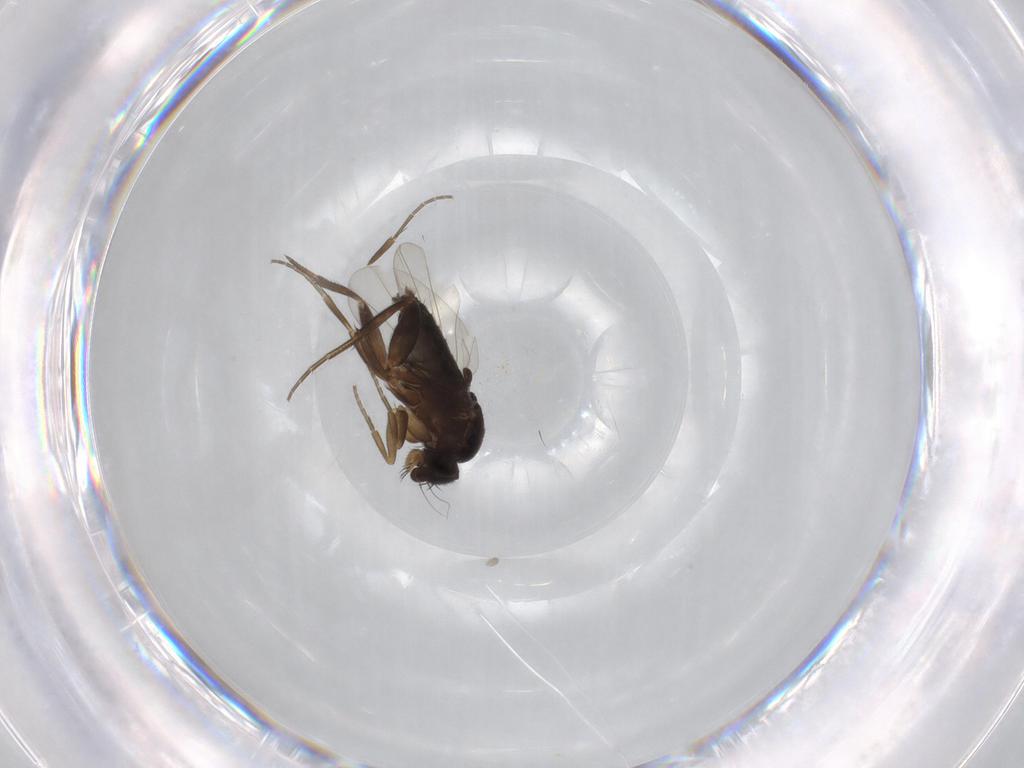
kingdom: Animalia
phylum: Arthropoda
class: Insecta
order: Diptera
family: Phoridae
